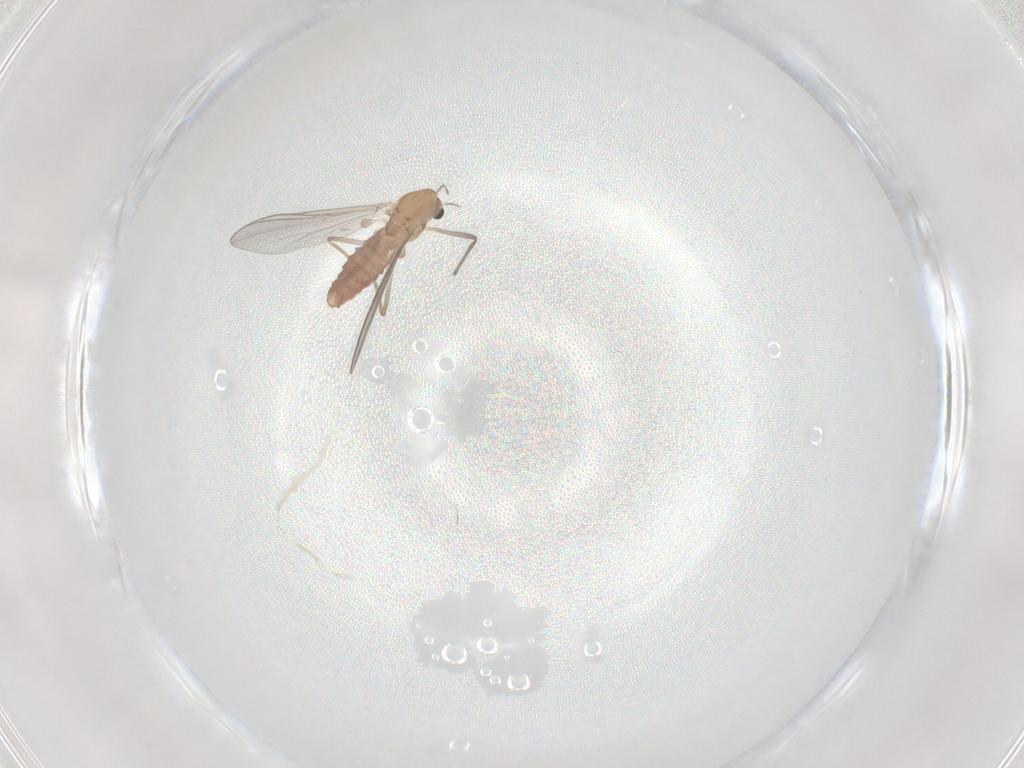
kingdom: Animalia
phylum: Arthropoda
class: Insecta
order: Diptera
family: Chironomidae
